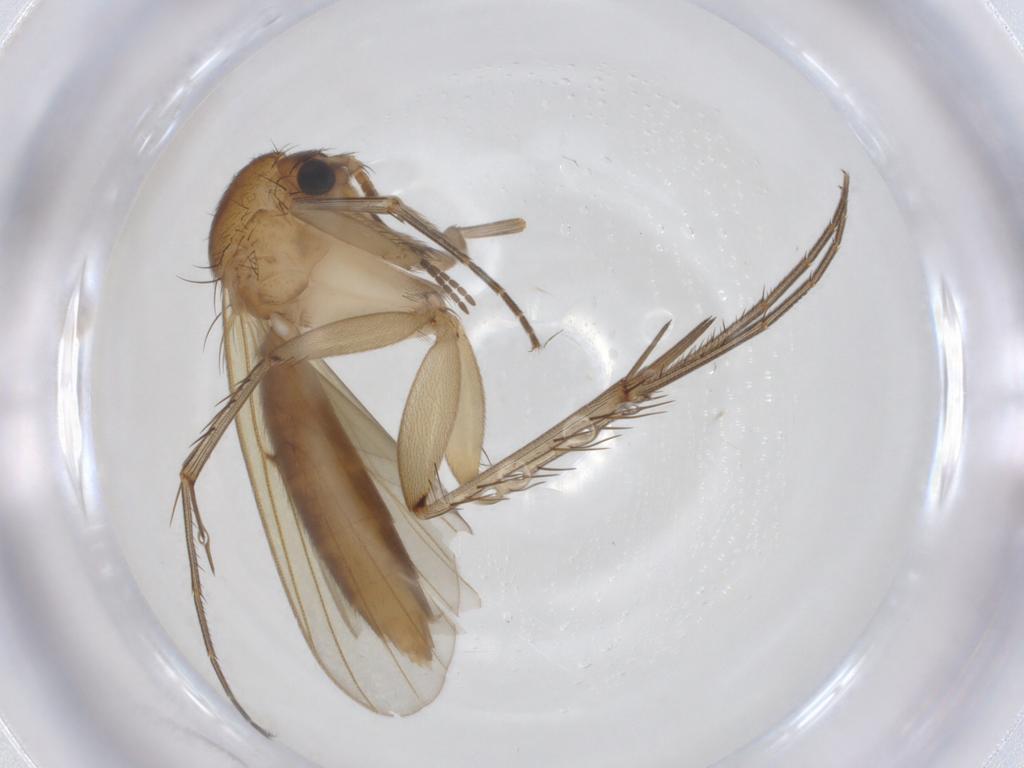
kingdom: Animalia
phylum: Arthropoda
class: Insecta
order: Diptera
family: Mycetophilidae
